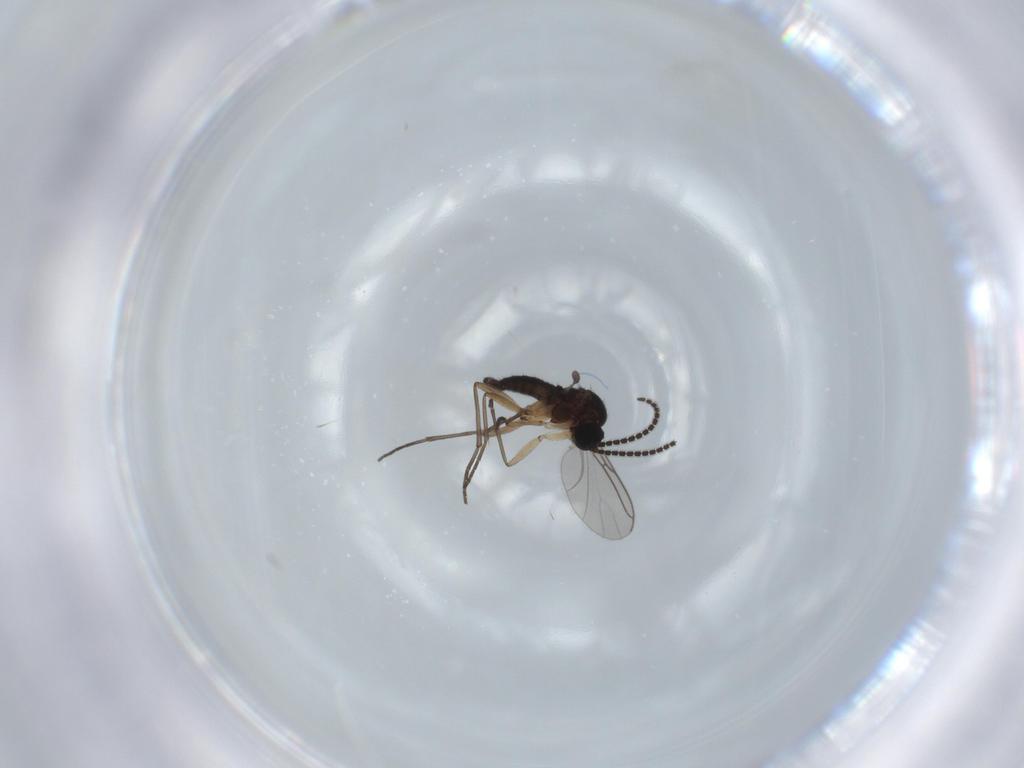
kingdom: Animalia
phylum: Arthropoda
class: Insecta
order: Diptera
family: Sciaridae
